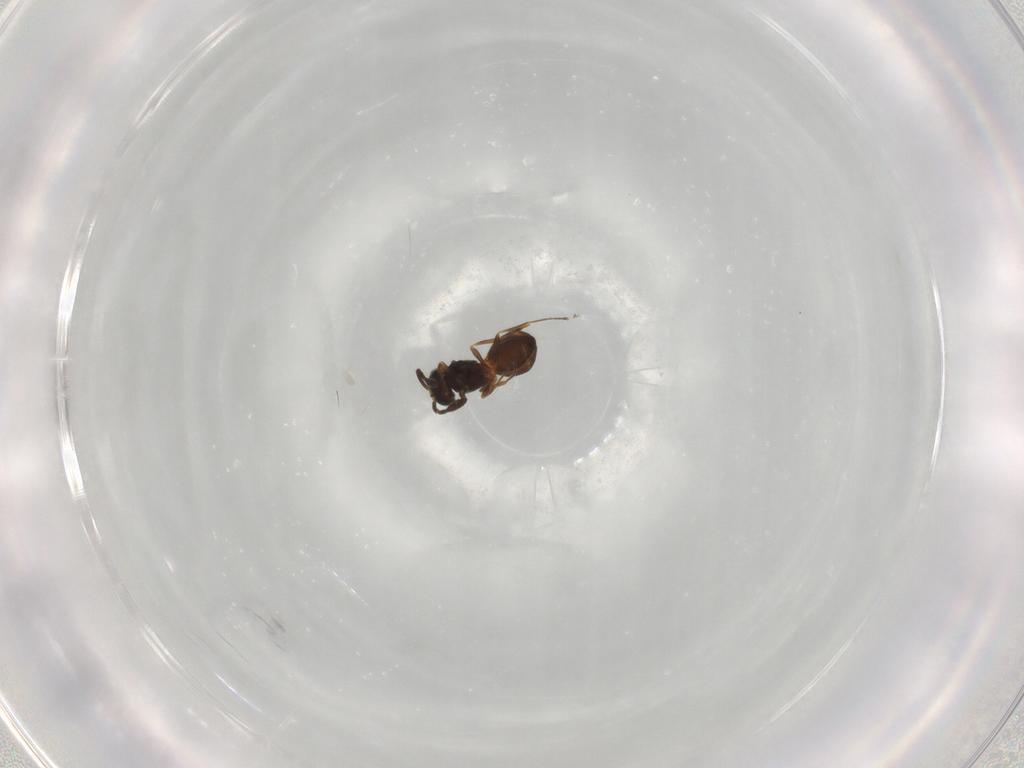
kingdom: Animalia
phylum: Arthropoda
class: Insecta
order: Hymenoptera
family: Scelionidae
